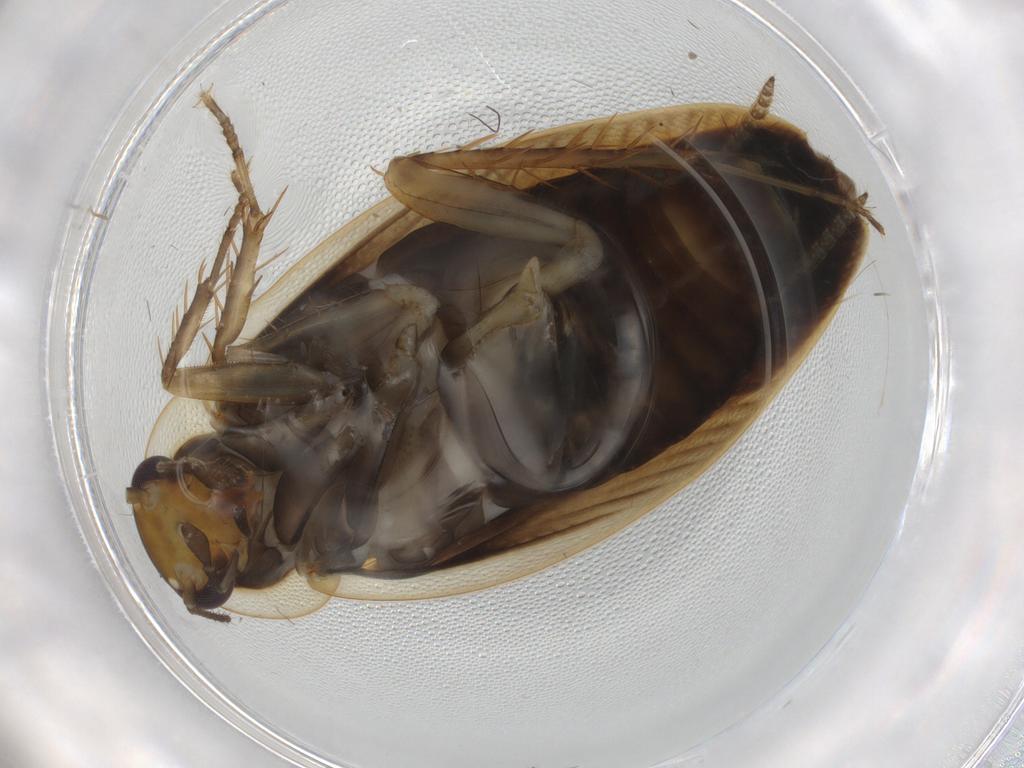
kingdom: Animalia
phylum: Arthropoda
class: Insecta
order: Blattodea
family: Ectobiidae
